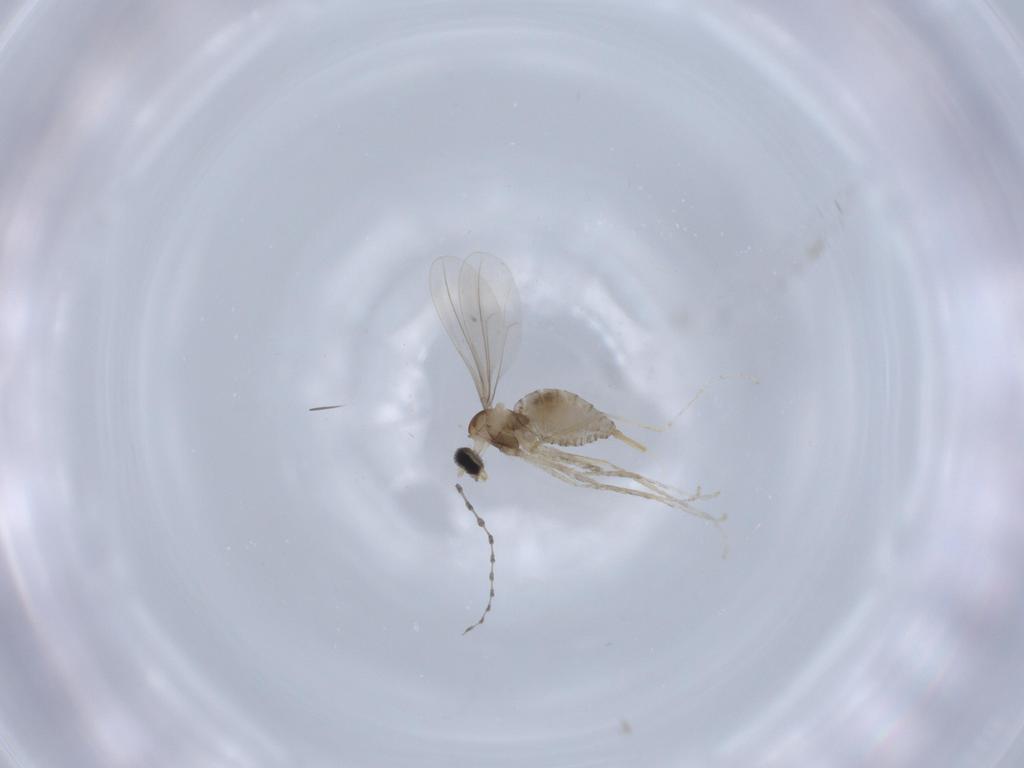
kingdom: Animalia
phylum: Arthropoda
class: Insecta
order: Diptera
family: Cecidomyiidae
